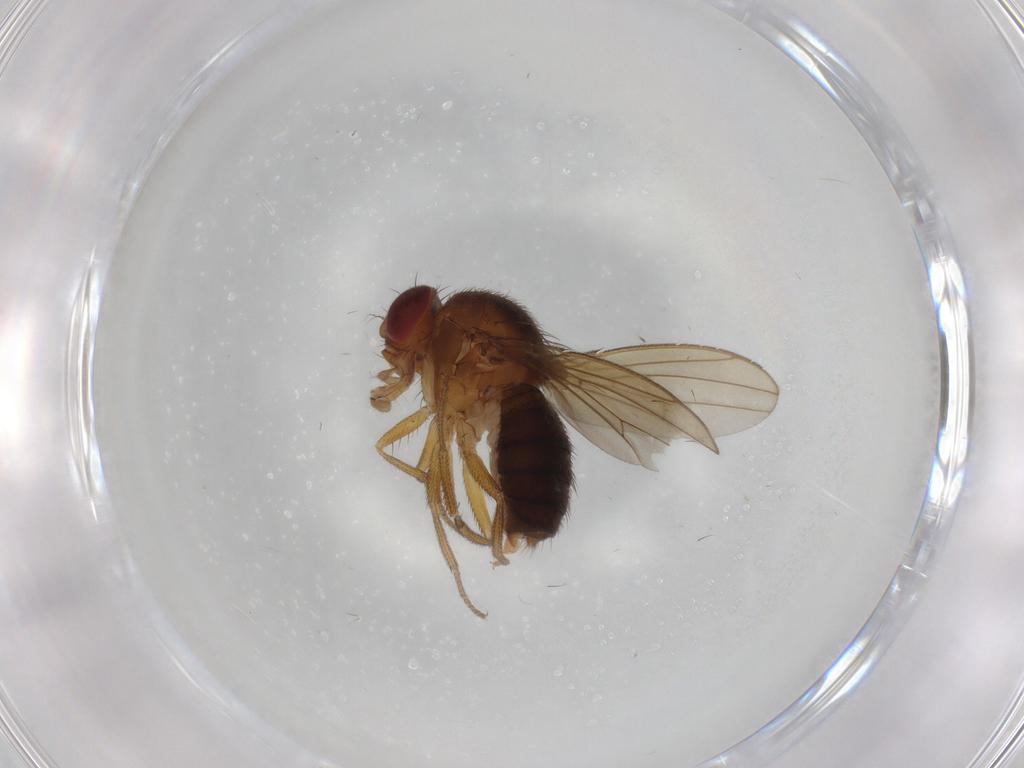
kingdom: Animalia
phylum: Arthropoda
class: Insecta
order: Diptera
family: Drosophilidae
